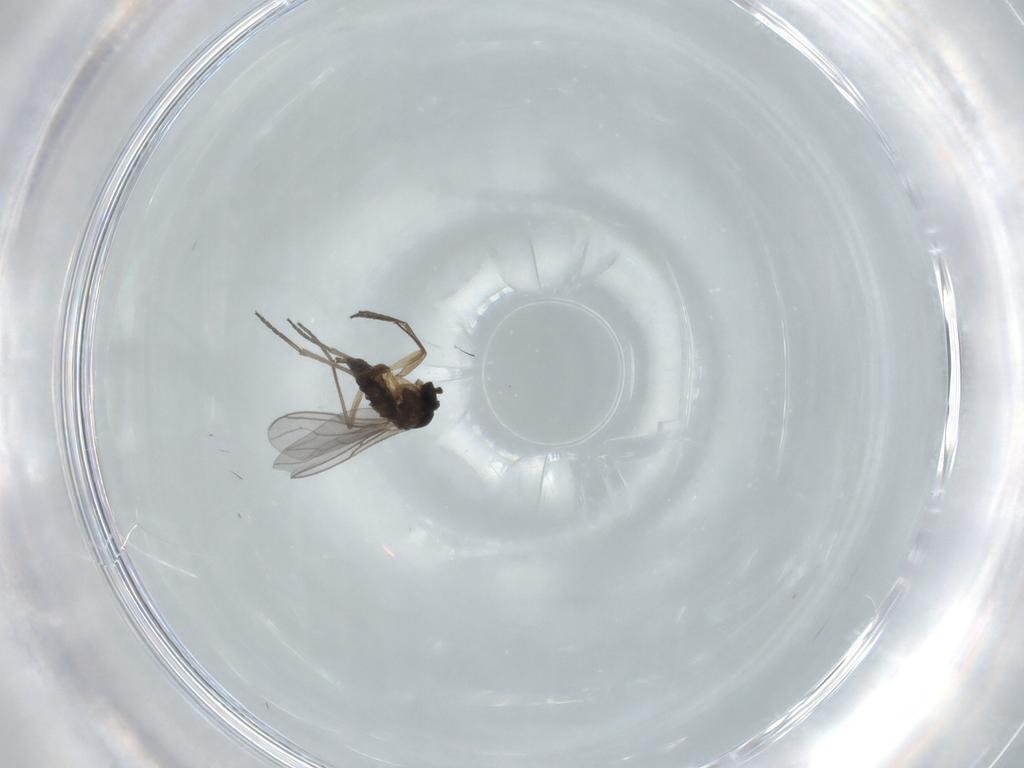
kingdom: Animalia
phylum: Arthropoda
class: Insecta
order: Diptera
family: Sciaridae
